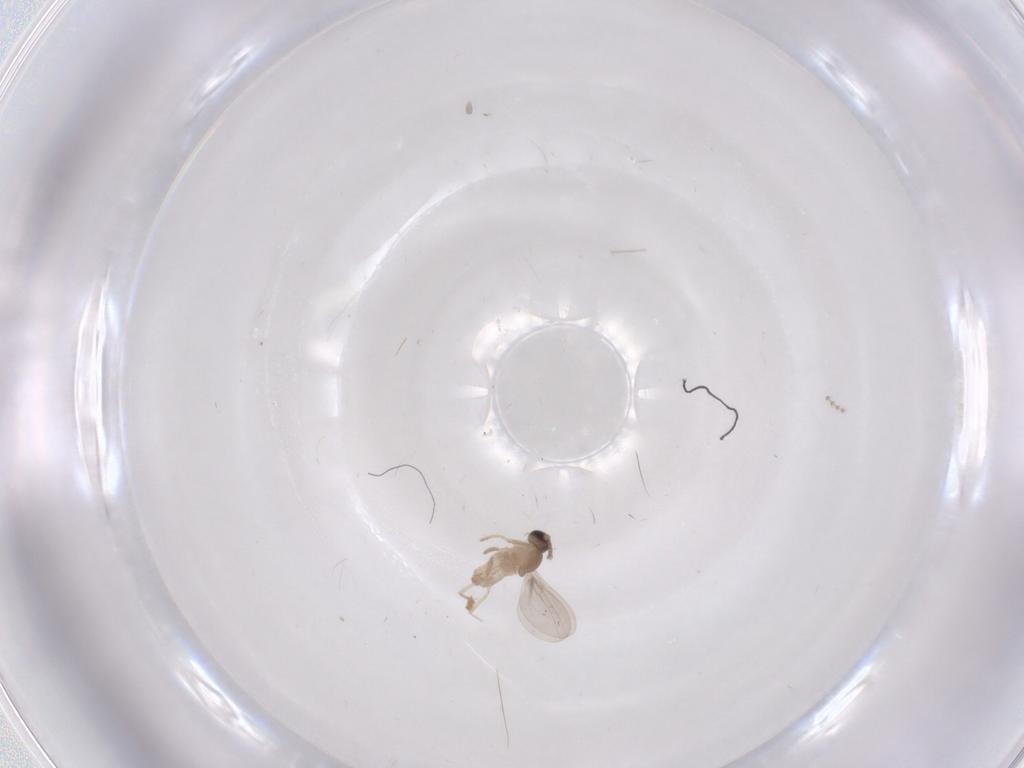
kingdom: Animalia
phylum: Arthropoda
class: Insecta
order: Diptera
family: Cecidomyiidae
